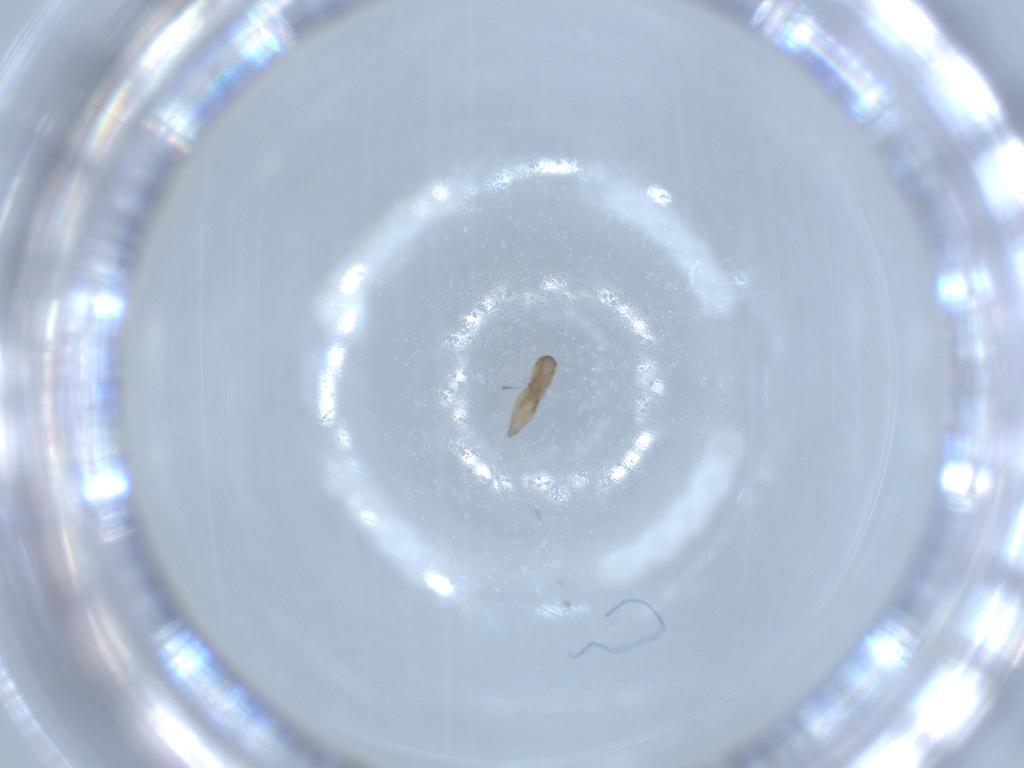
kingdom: Animalia
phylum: Arthropoda
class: Insecta
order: Diptera
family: Cecidomyiidae
